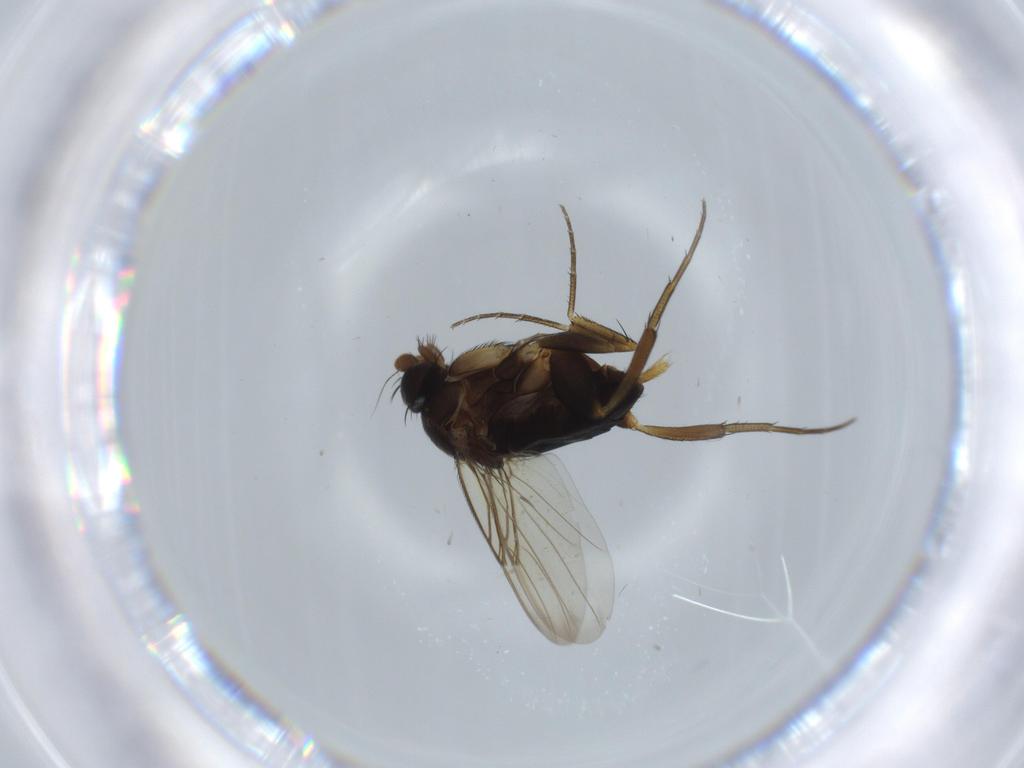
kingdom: Animalia
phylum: Arthropoda
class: Insecta
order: Diptera
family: Phoridae
